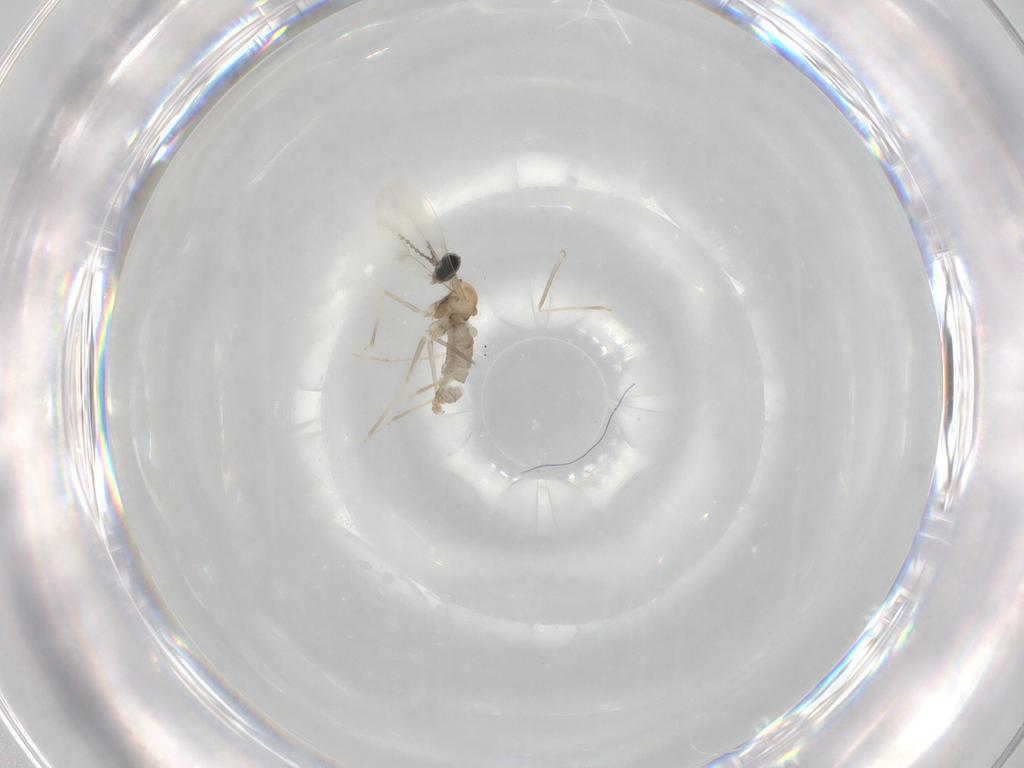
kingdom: Animalia
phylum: Arthropoda
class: Insecta
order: Diptera
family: Cecidomyiidae
